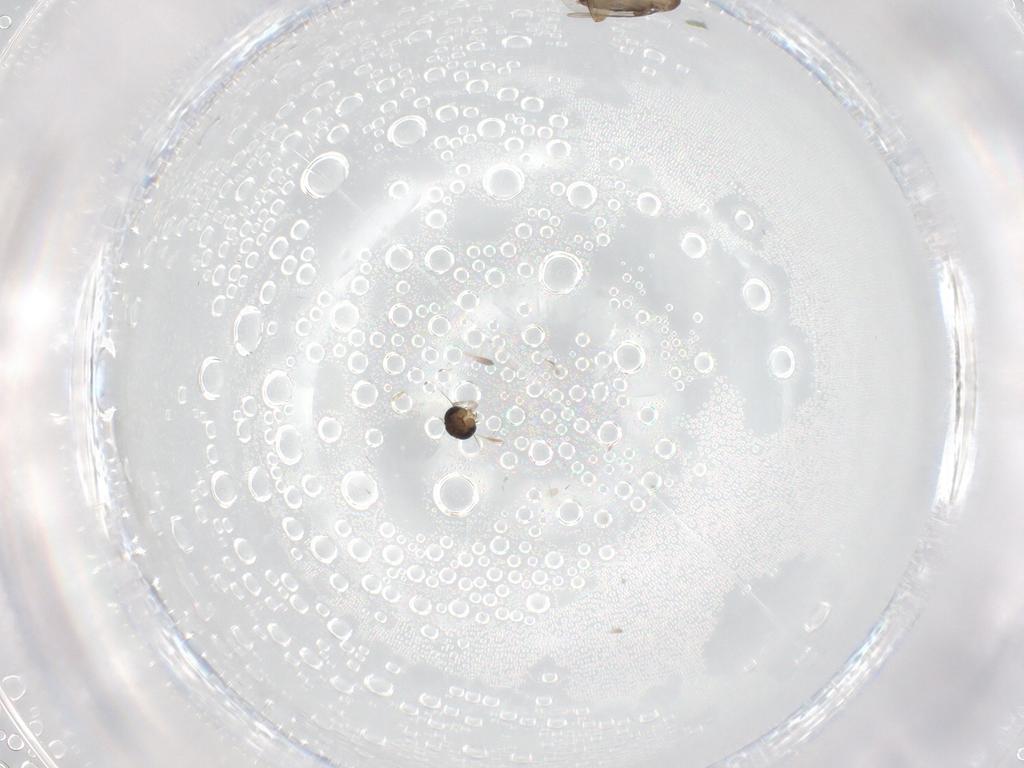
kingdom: Animalia
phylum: Arthropoda
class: Insecta
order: Diptera
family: Phoridae
